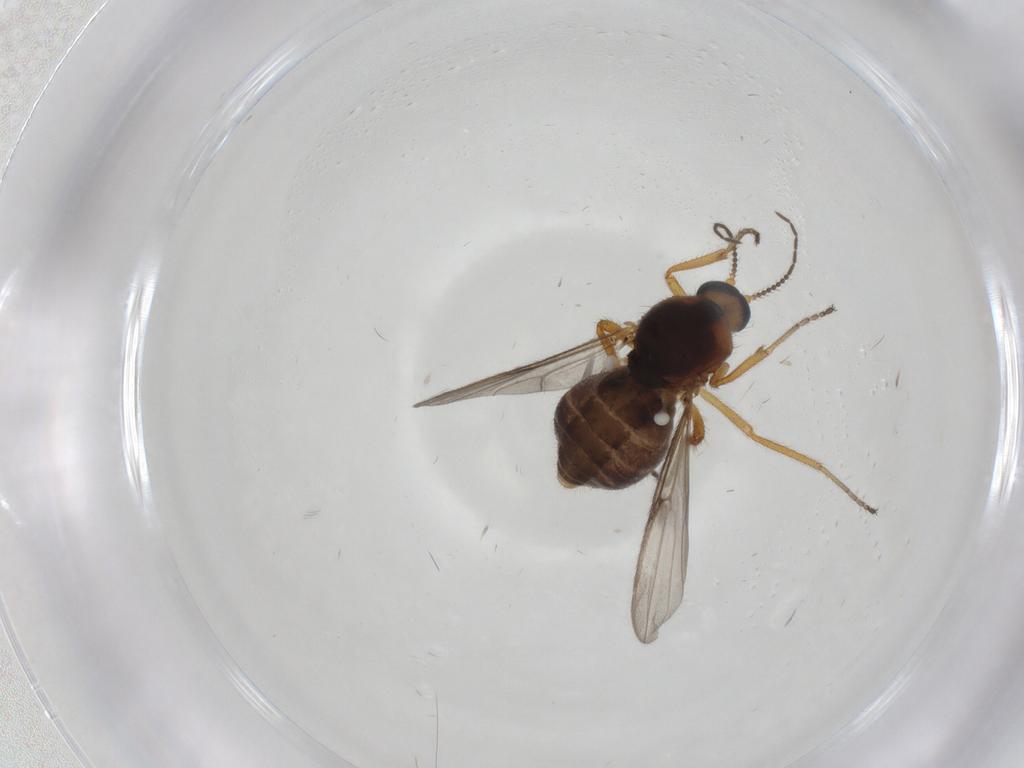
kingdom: Animalia
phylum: Arthropoda
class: Insecta
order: Diptera
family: Ceratopogonidae
